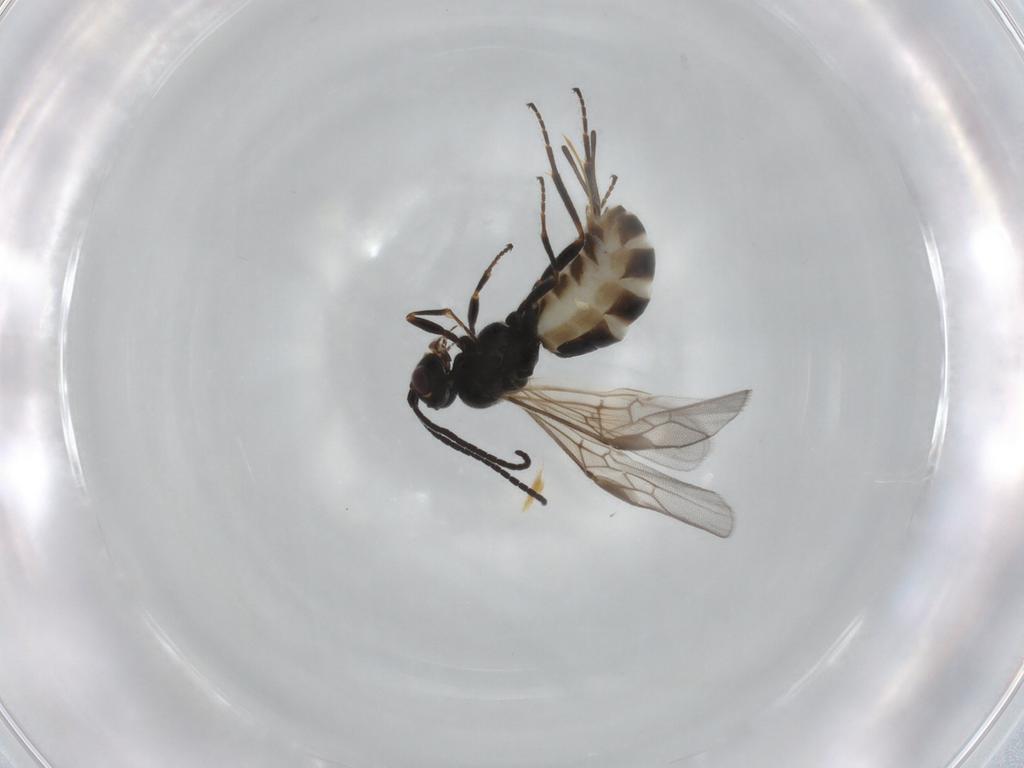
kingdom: Animalia
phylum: Arthropoda
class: Insecta
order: Hymenoptera
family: Braconidae
